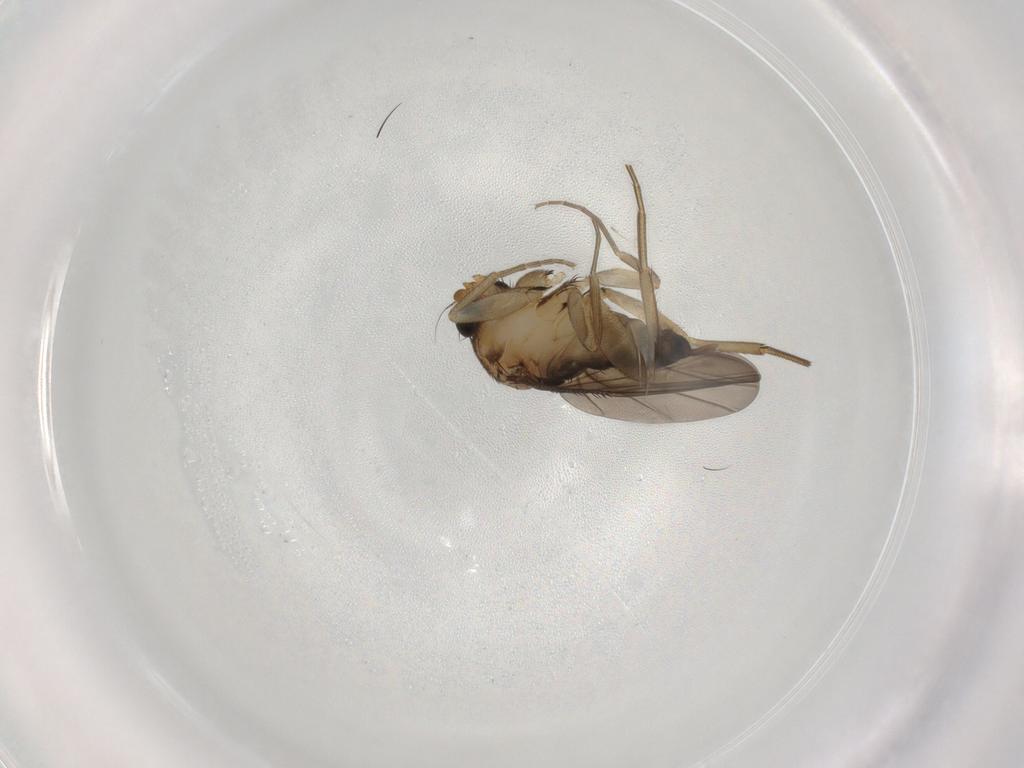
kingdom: Animalia
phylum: Arthropoda
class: Insecta
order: Diptera
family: Phoridae
